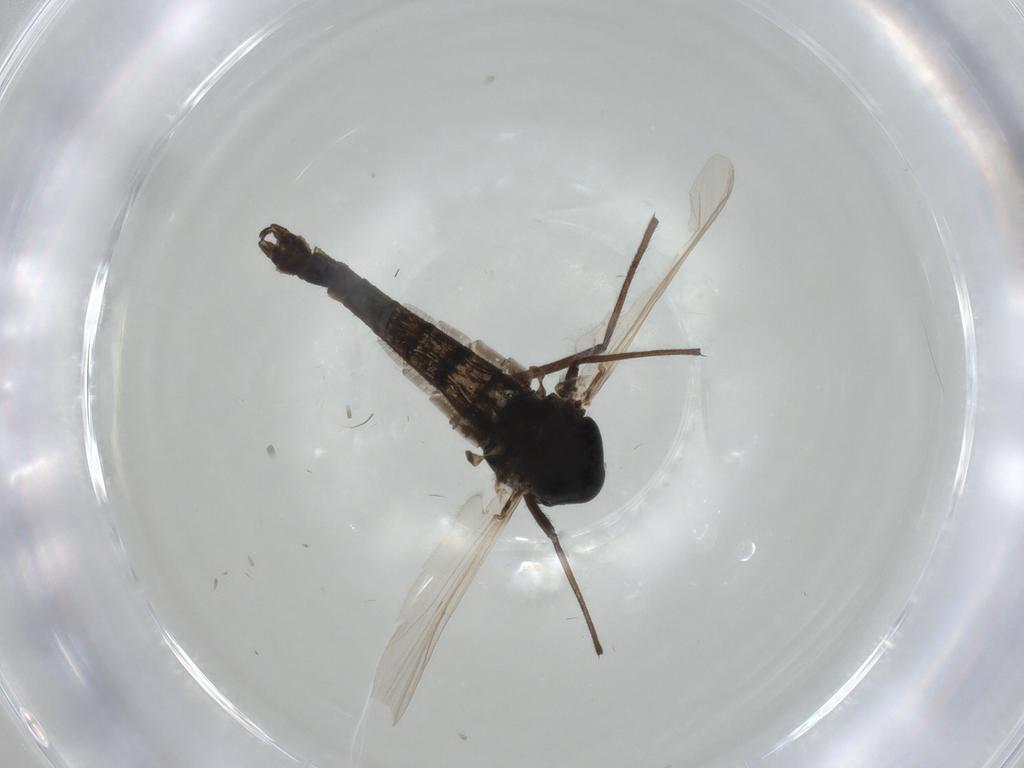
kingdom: Animalia
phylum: Arthropoda
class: Insecta
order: Diptera
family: Chironomidae
